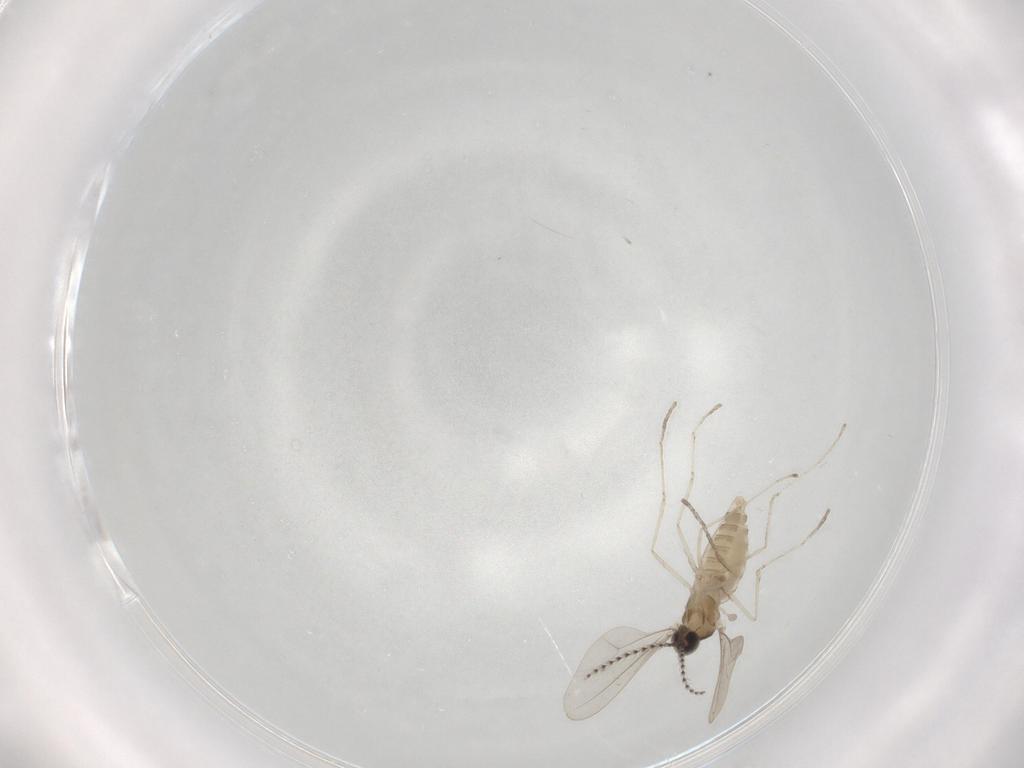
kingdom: Animalia
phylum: Arthropoda
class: Insecta
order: Diptera
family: Cecidomyiidae
